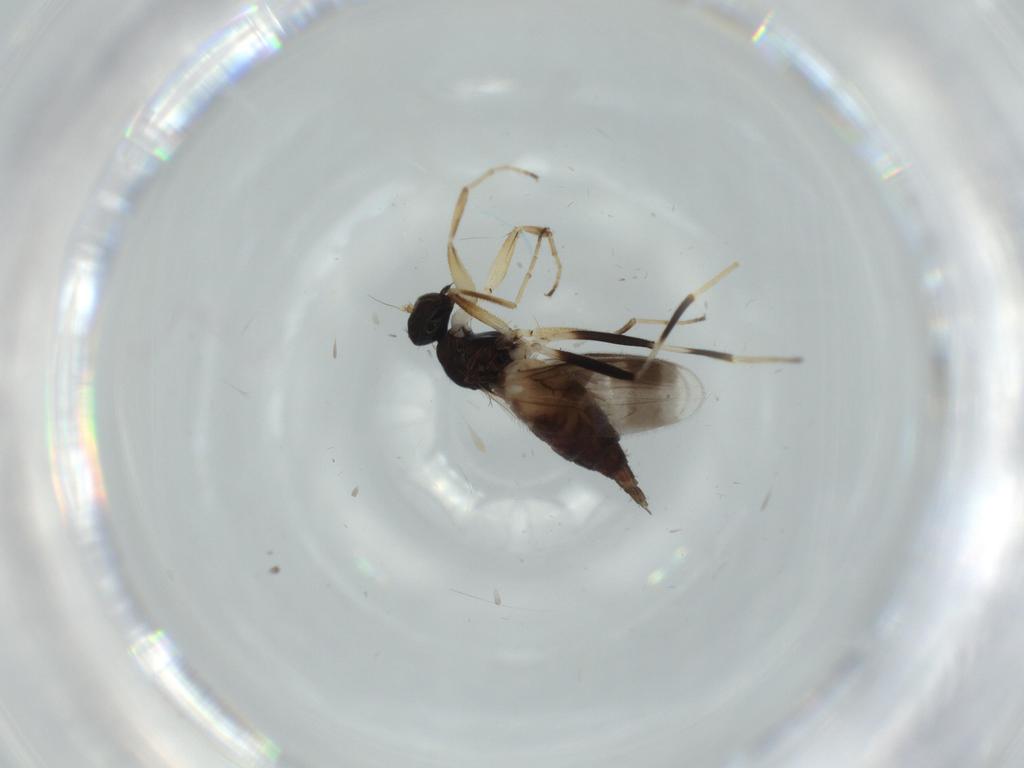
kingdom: Animalia
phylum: Arthropoda
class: Insecta
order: Diptera
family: Hybotidae
